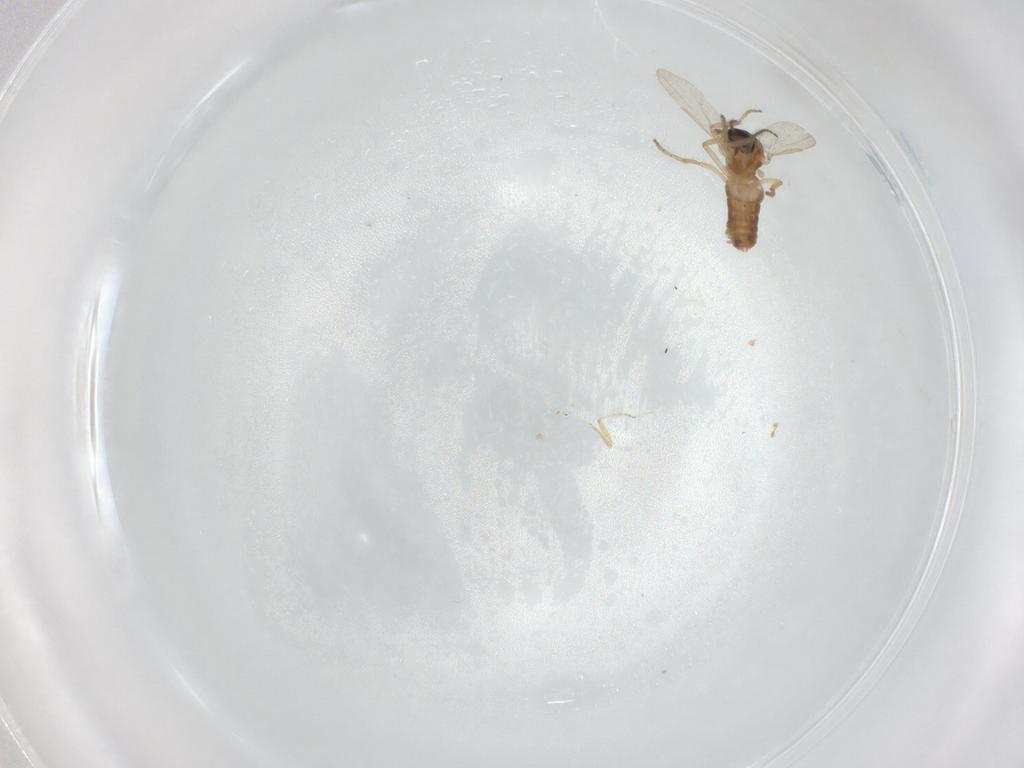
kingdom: Animalia
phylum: Arthropoda
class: Insecta
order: Diptera
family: Ceratopogonidae
